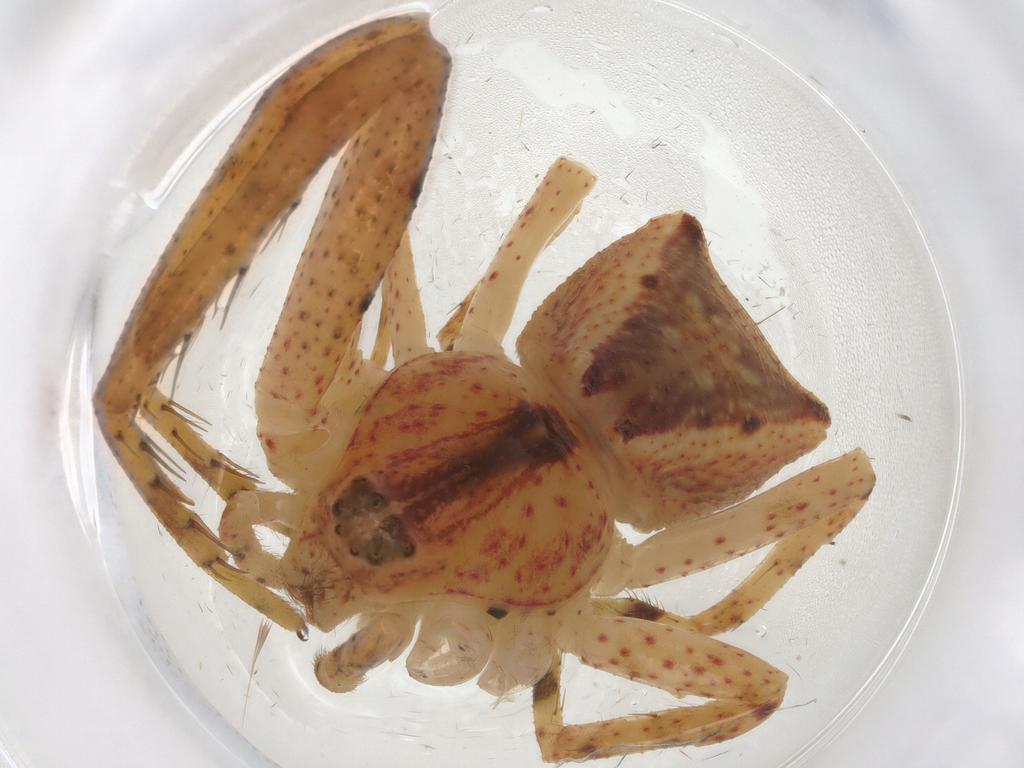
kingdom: Animalia
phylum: Arthropoda
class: Arachnida
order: Araneae
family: Thomisidae
